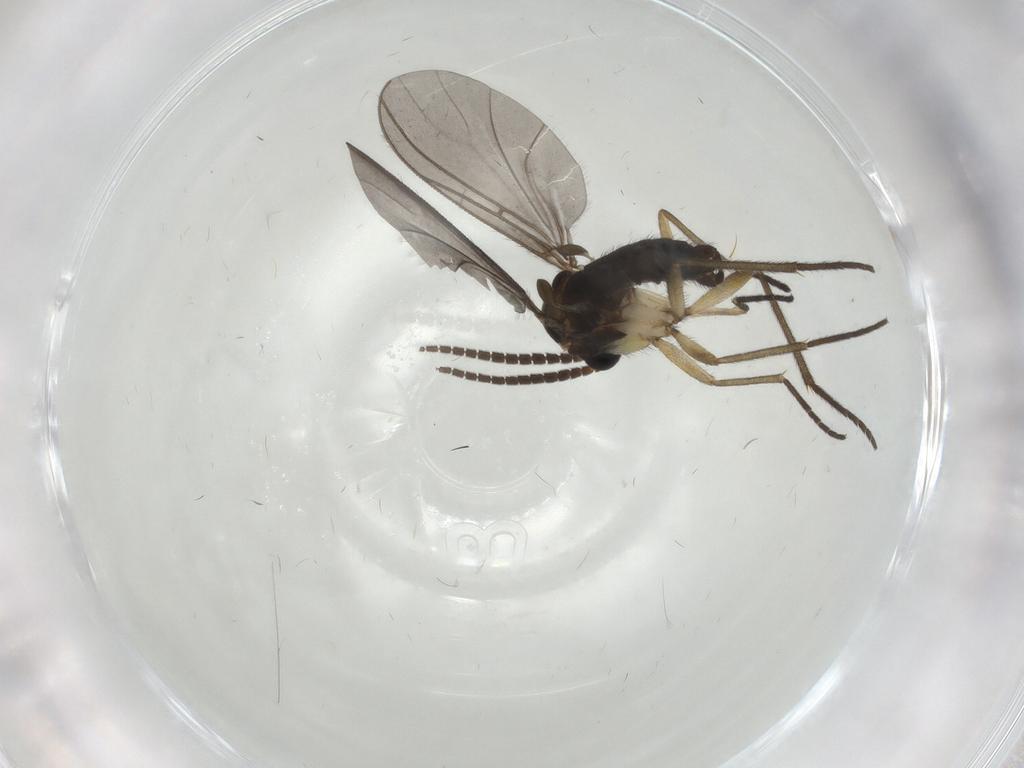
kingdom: Animalia
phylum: Arthropoda
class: Insecta
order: Diptera
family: Sciaridae
